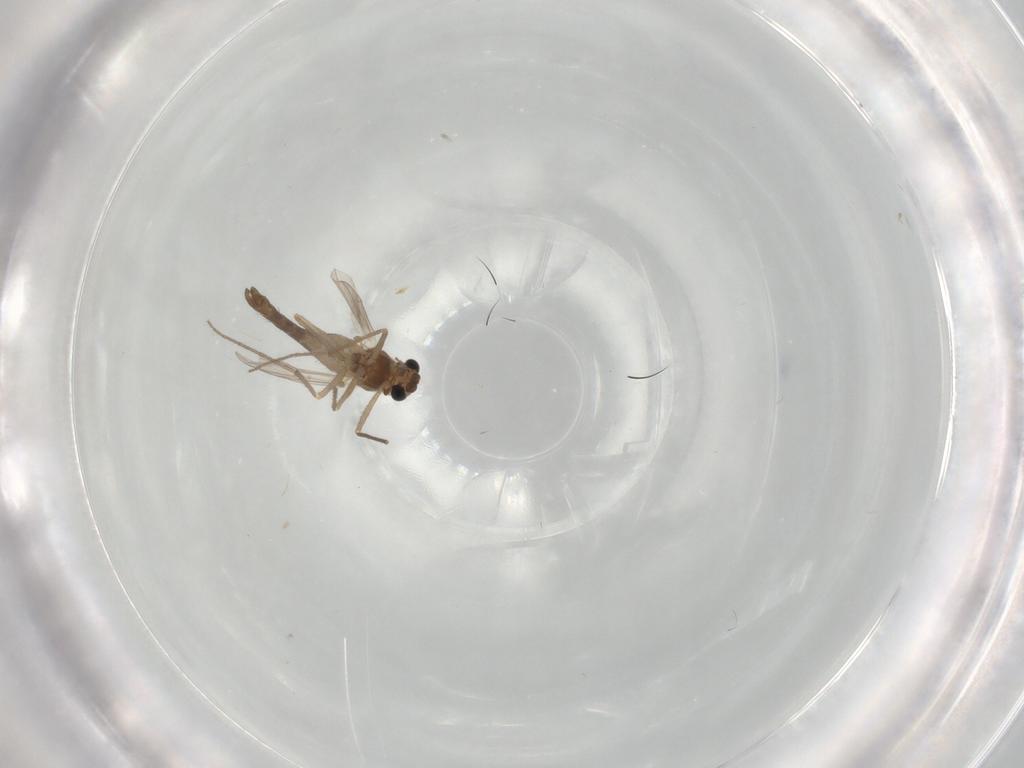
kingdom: Animalia
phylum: Arthropoda
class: Insecta
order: Diptera
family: Chironomidae
